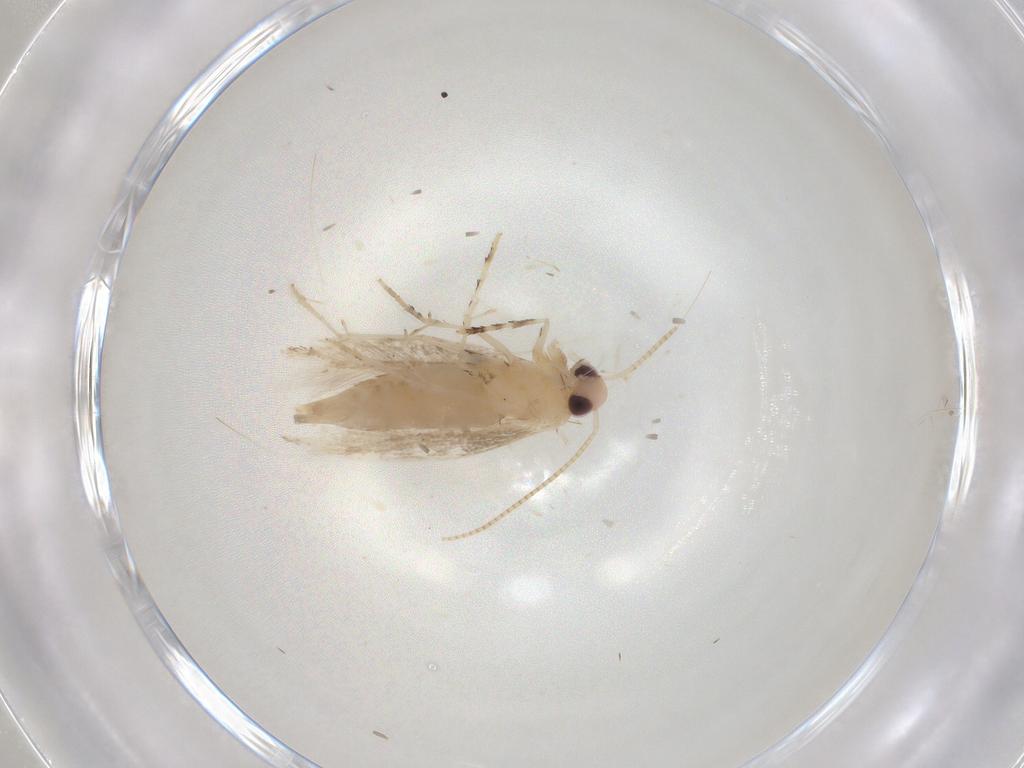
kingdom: Animalia
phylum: Arthropoda
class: Insecta
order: Lepidoptera
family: Gracillariidae
